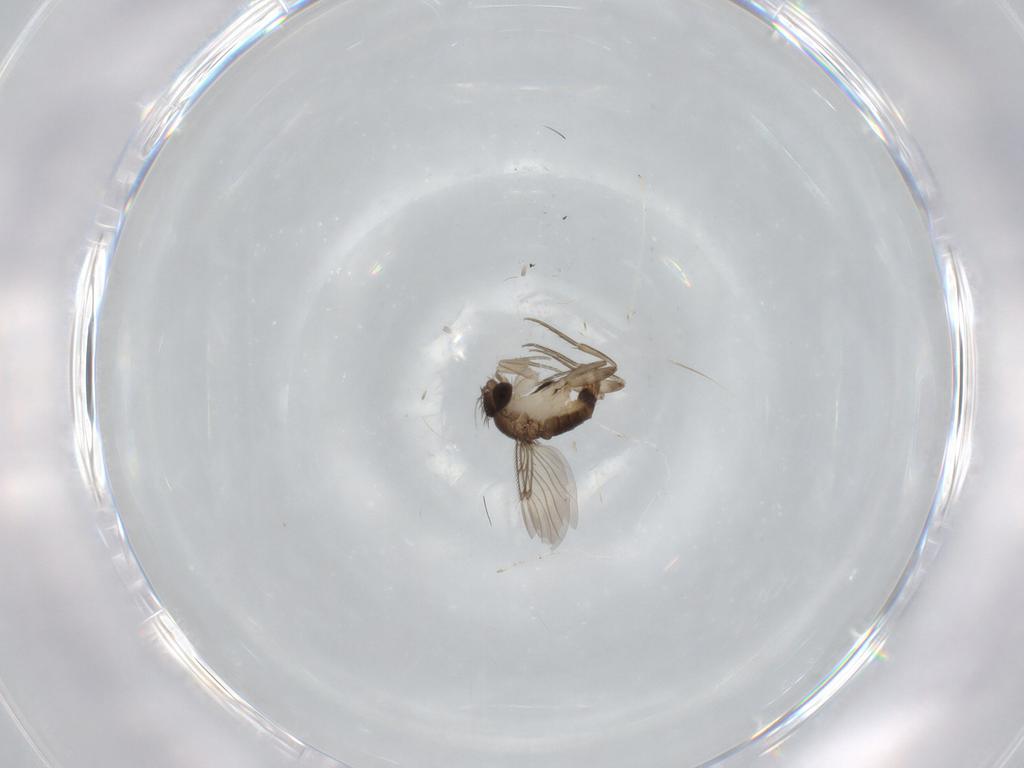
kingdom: Animalia
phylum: Arthropoda
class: Insecta
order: Diptera
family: Phoridae
